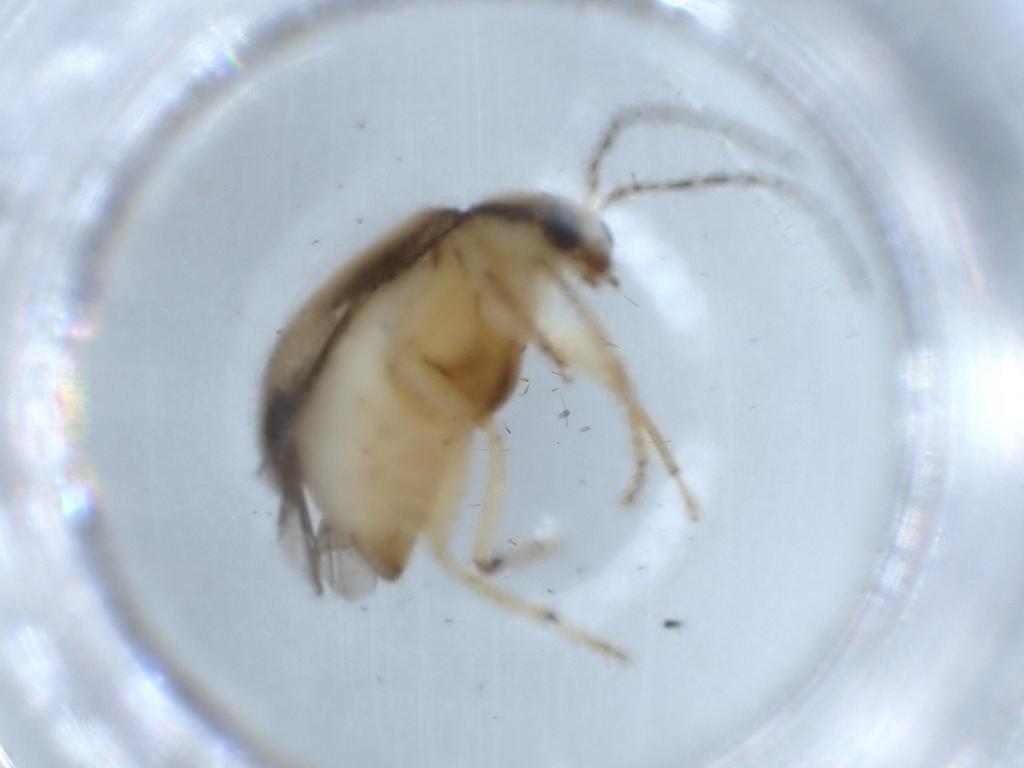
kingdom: Animalia
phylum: Arthropoda
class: Insecta
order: Coleoptera
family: Chrysomelidae
